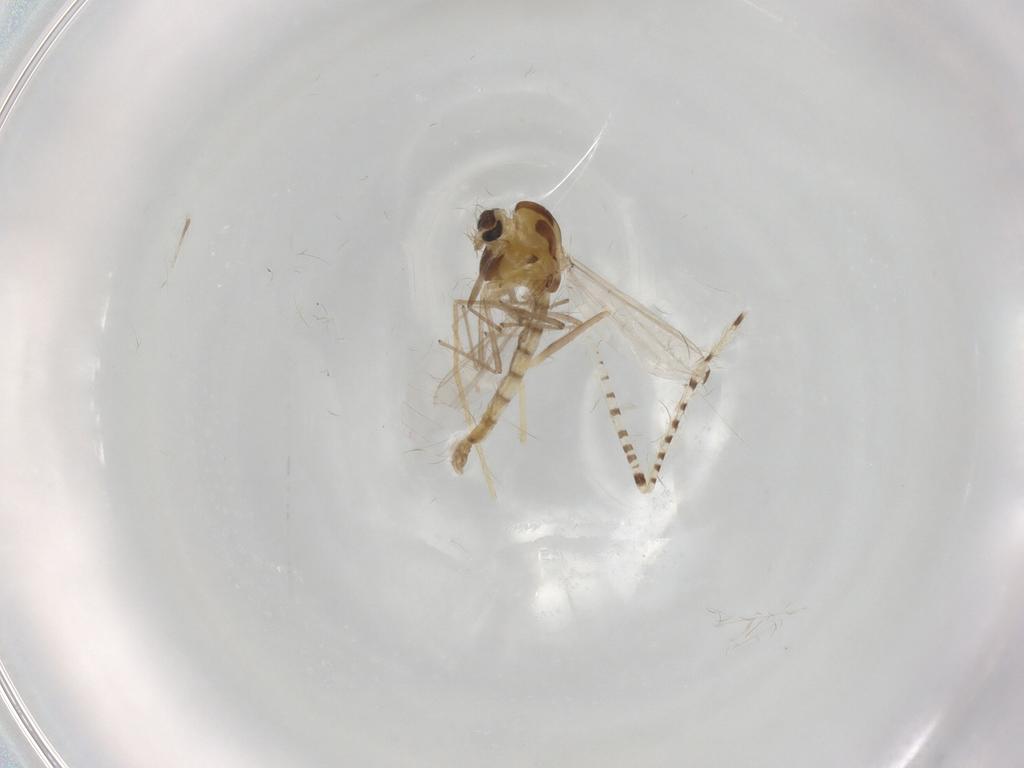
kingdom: Animalia
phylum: Arthropoda
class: Insecta
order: Diptera
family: Chaoboridae
